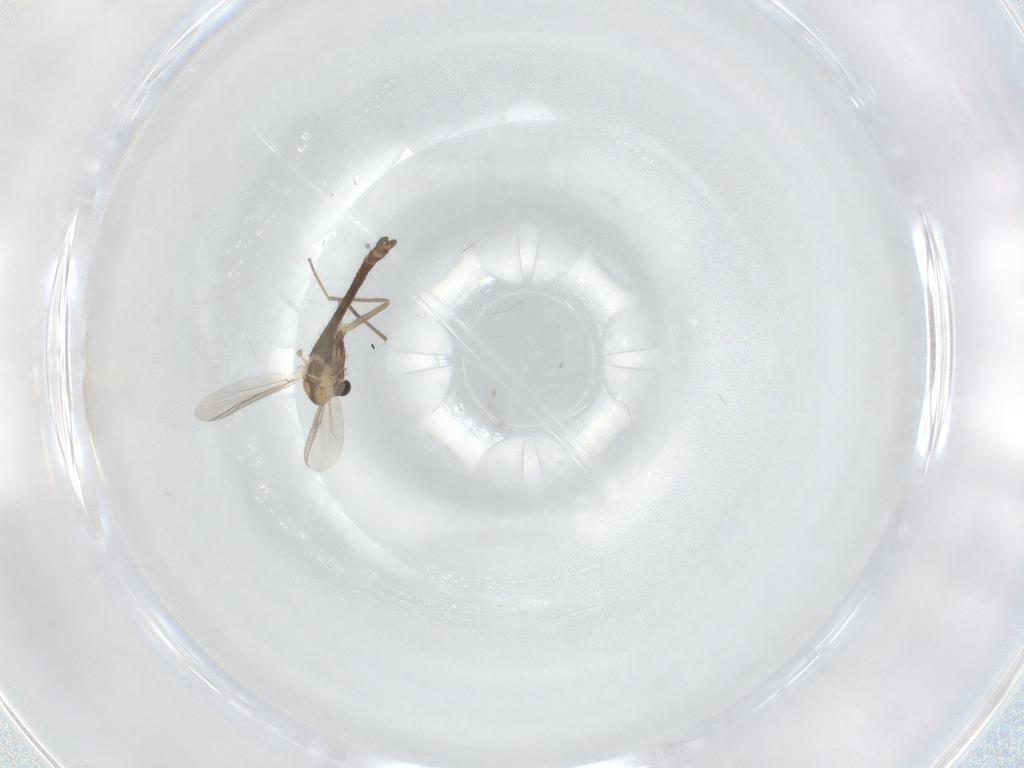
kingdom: Animalia
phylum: Arthropoda
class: Insecta
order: Diptera
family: Chironomidae
